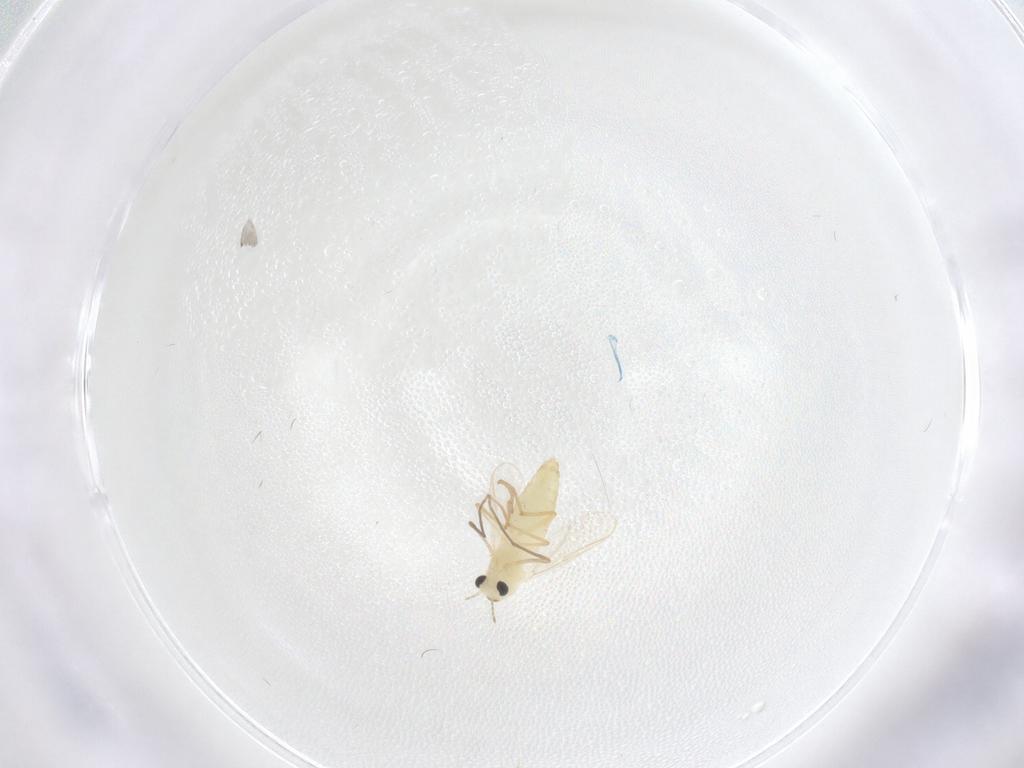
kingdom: Animalia
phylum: Arthropoda
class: Insecta
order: Diptera
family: Chironomidae
